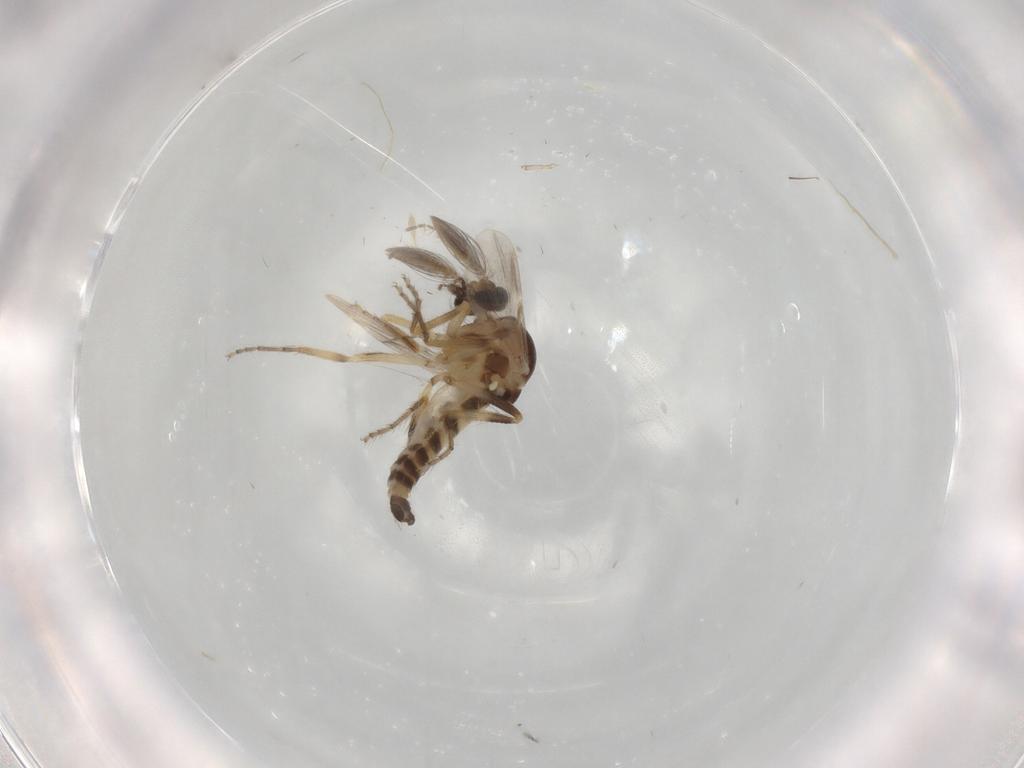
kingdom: Animalia
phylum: Arthropoda
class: Insecta
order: Diptera
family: Ceratopogonidae
